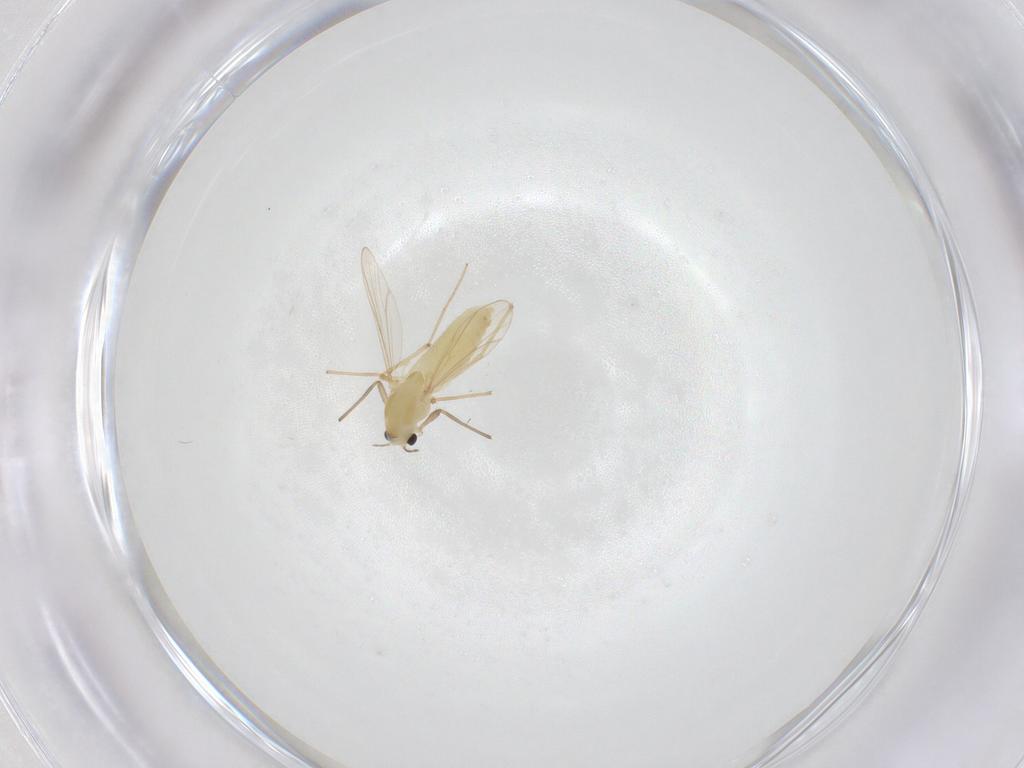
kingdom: Animalia
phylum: Arthropoda
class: Insecta
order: Diptera
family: Chironomidae
